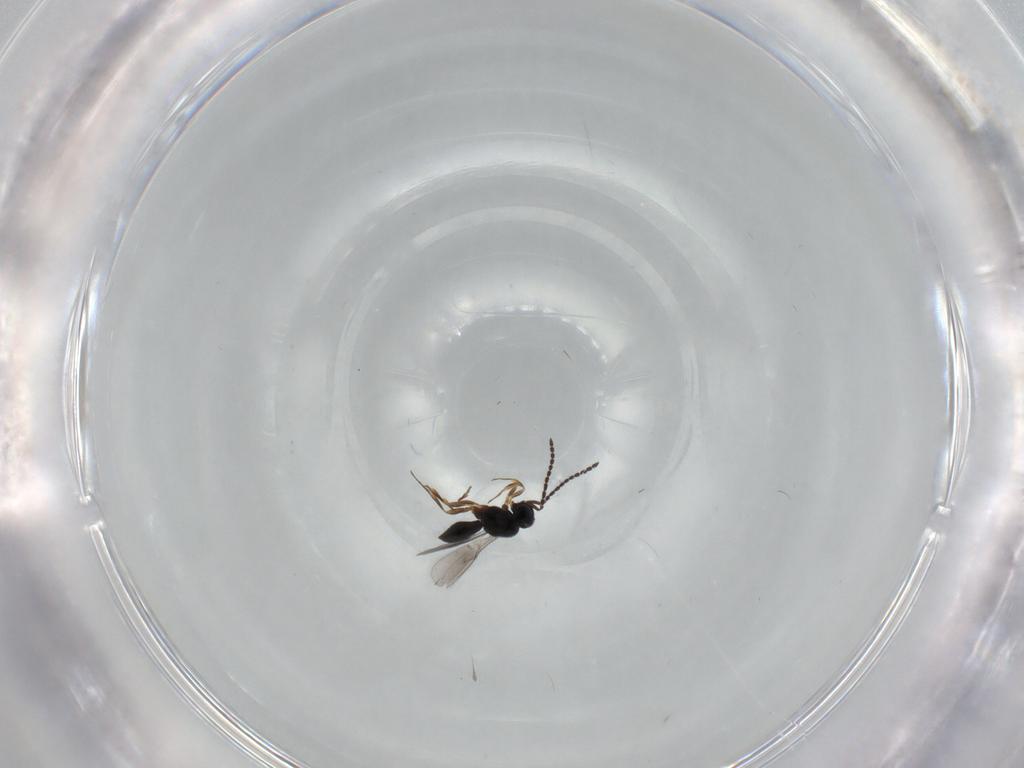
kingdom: Animalia
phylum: Arthropoda
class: Insecta
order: Hymenoptera
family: Scelionidae
